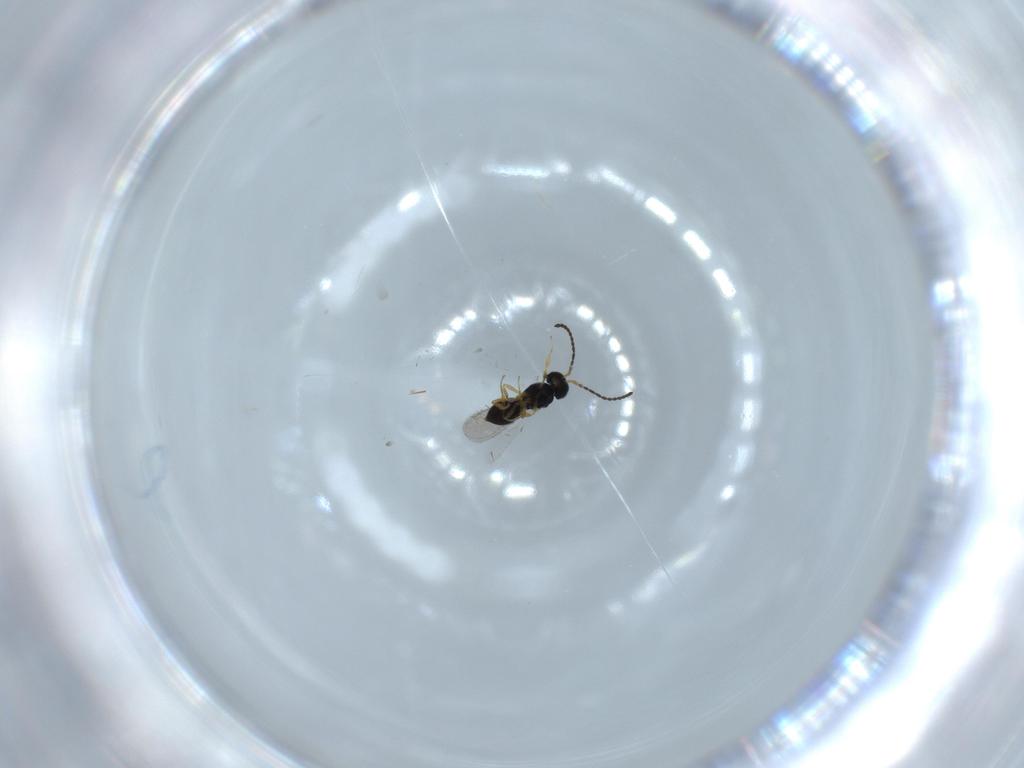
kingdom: Animalia
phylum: Arthropoda
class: Insecta
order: Hymenoptera
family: Scelionidae
